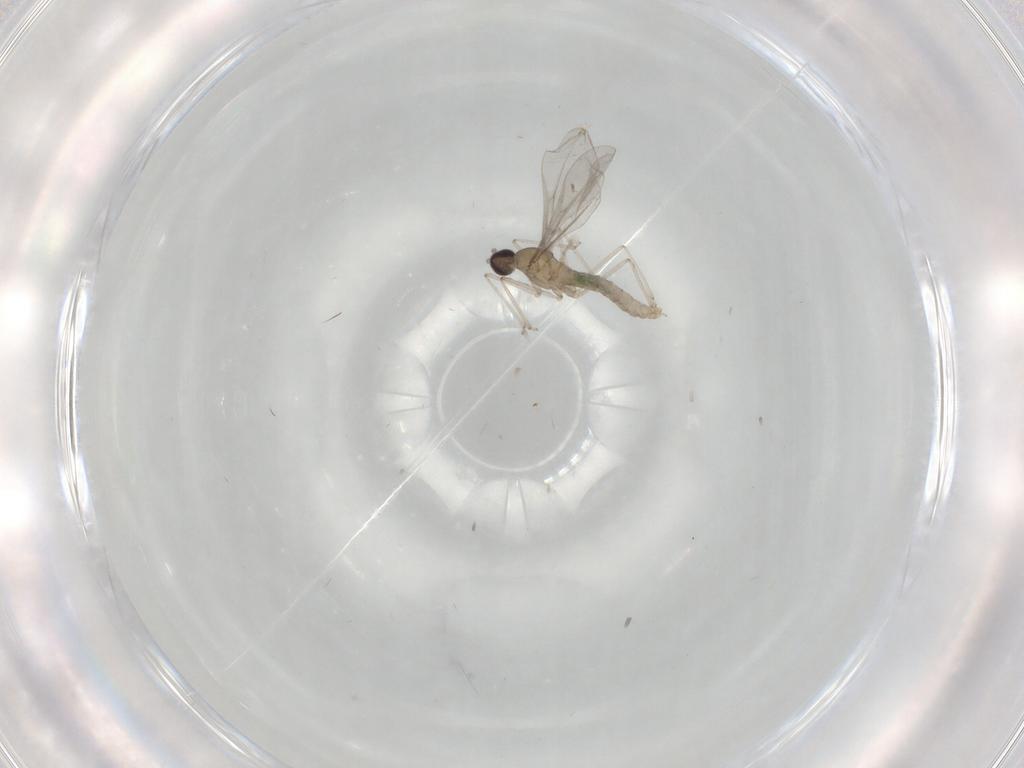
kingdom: Animalia
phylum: Arthropoda
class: Insecta
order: Diptera
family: Cecidomyiidae
